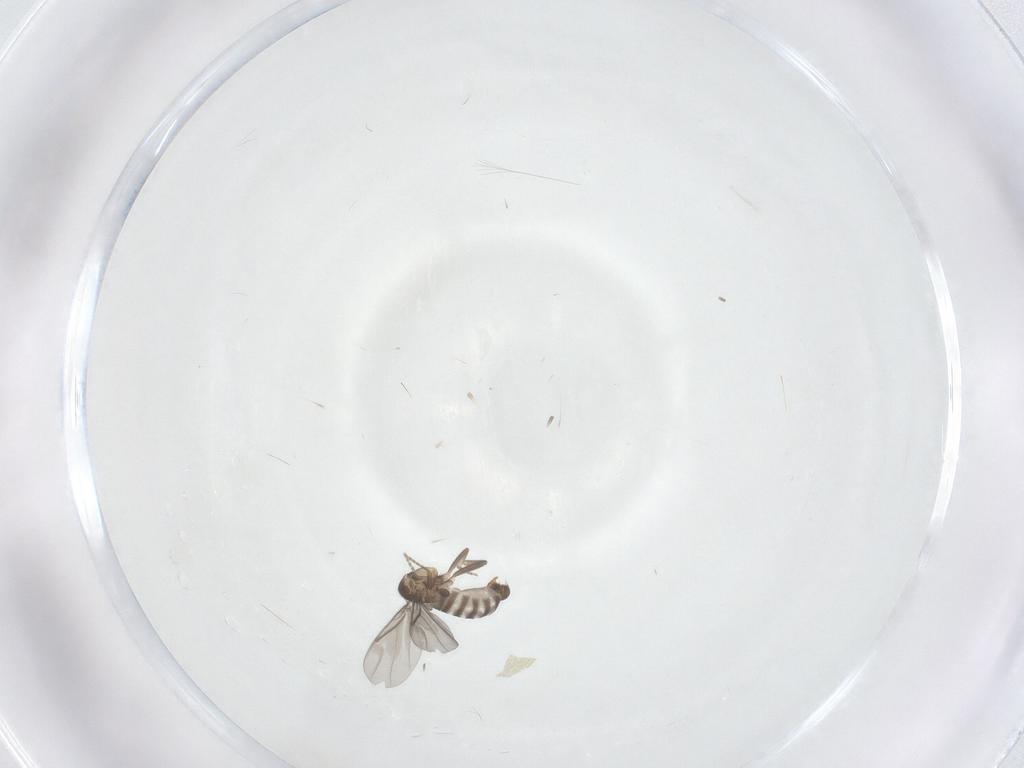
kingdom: Animalia
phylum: Arthropoda
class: Insecta
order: Diptera
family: Phoridae
